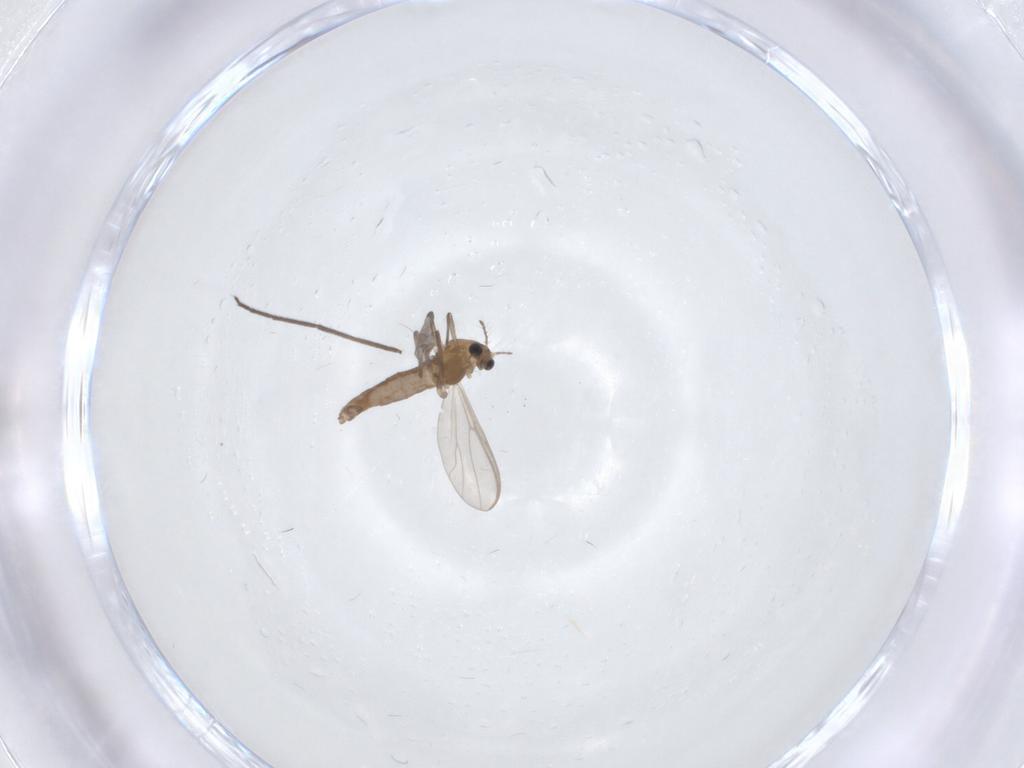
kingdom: Animalia
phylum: Arthropoda
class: Insecta
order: Diptera
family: Chironomidae
